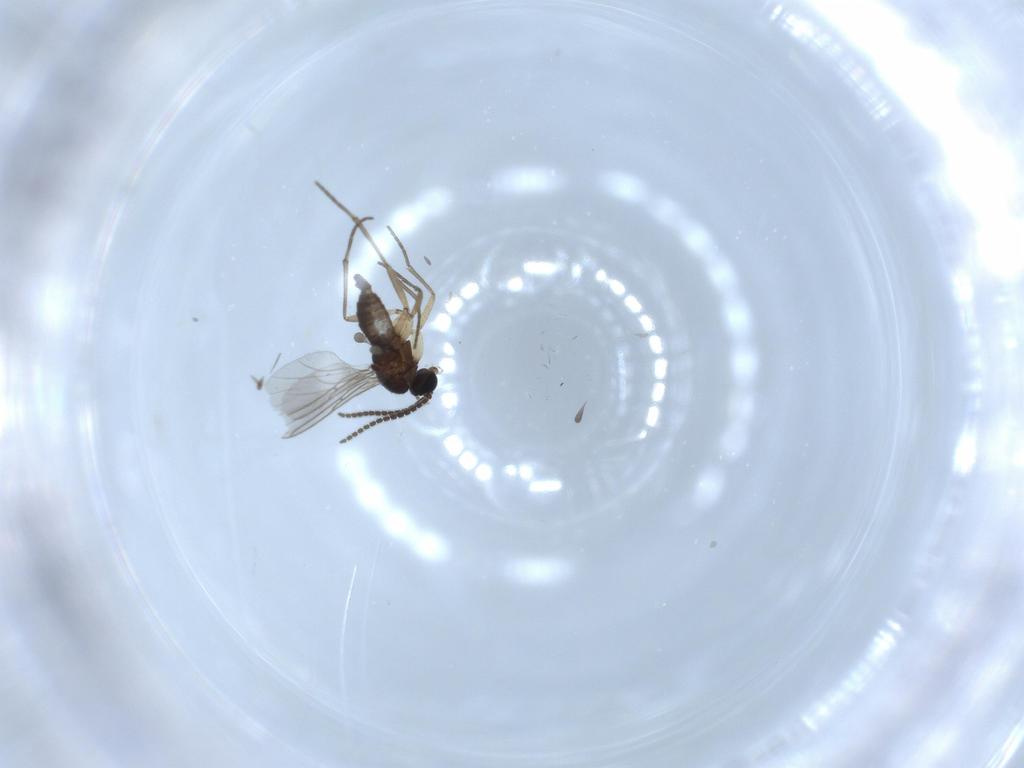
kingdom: Animalia
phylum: Arthropoda
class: Insecta
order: Diptera
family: Sciaridae
